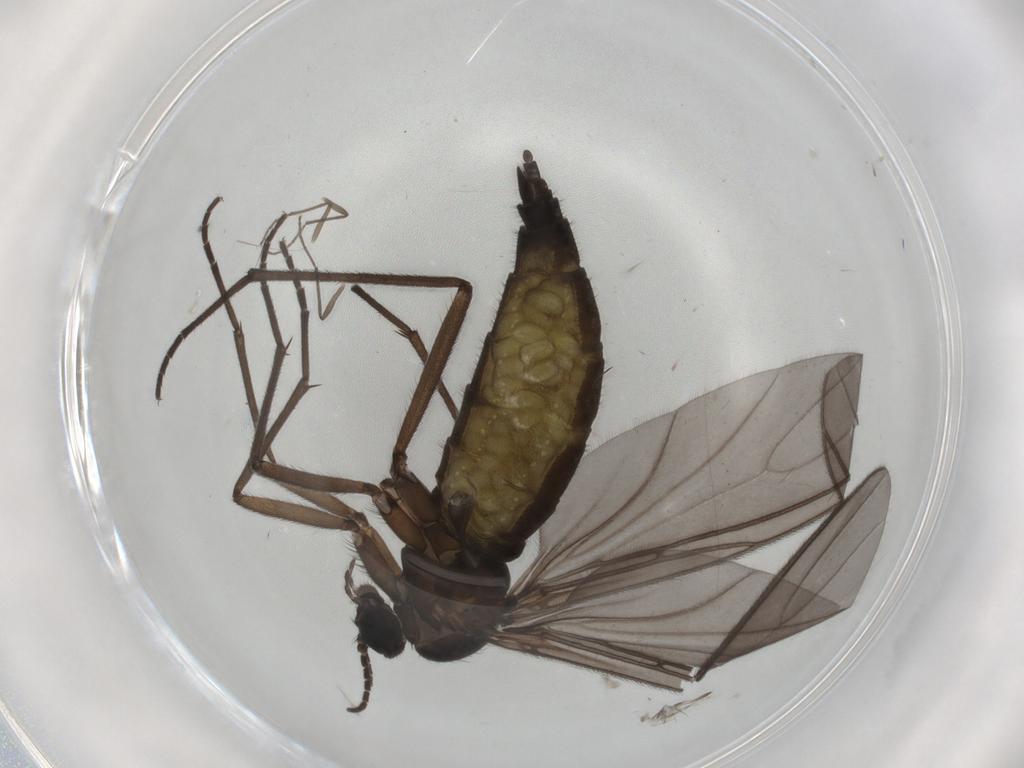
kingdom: Animalia
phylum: Arthropoda
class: Insecta
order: Diptera
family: Sciaridae
